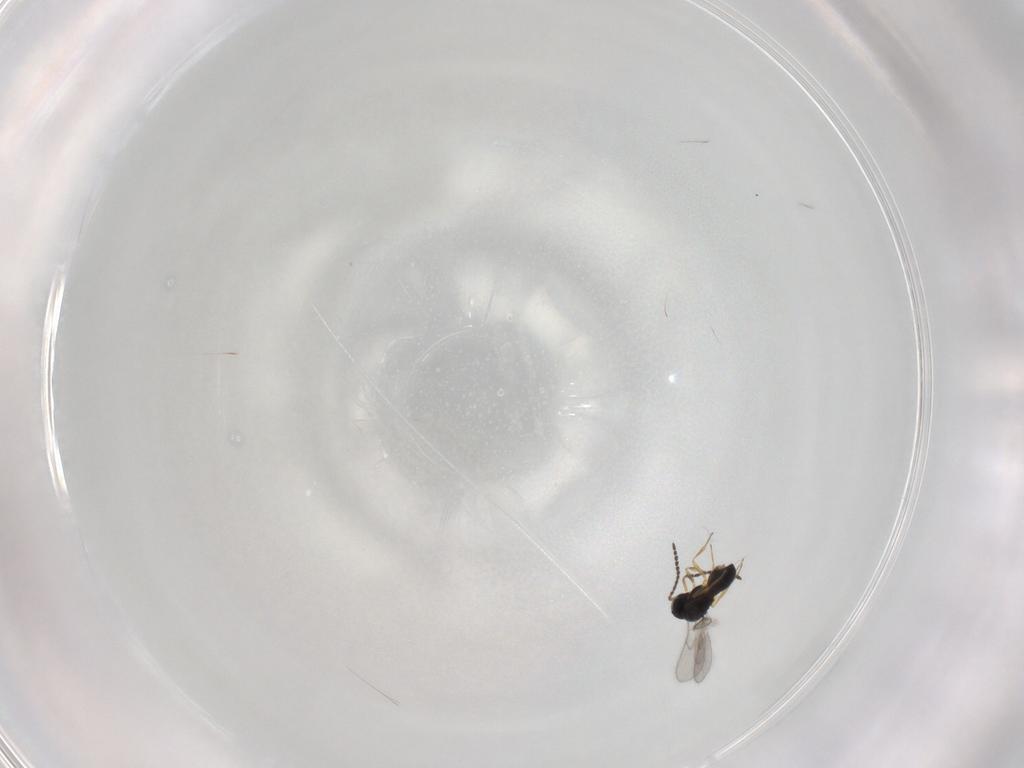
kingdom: Animalia
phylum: Arthropoda
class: Insecta
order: Hymenoptera
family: Scelionidae
